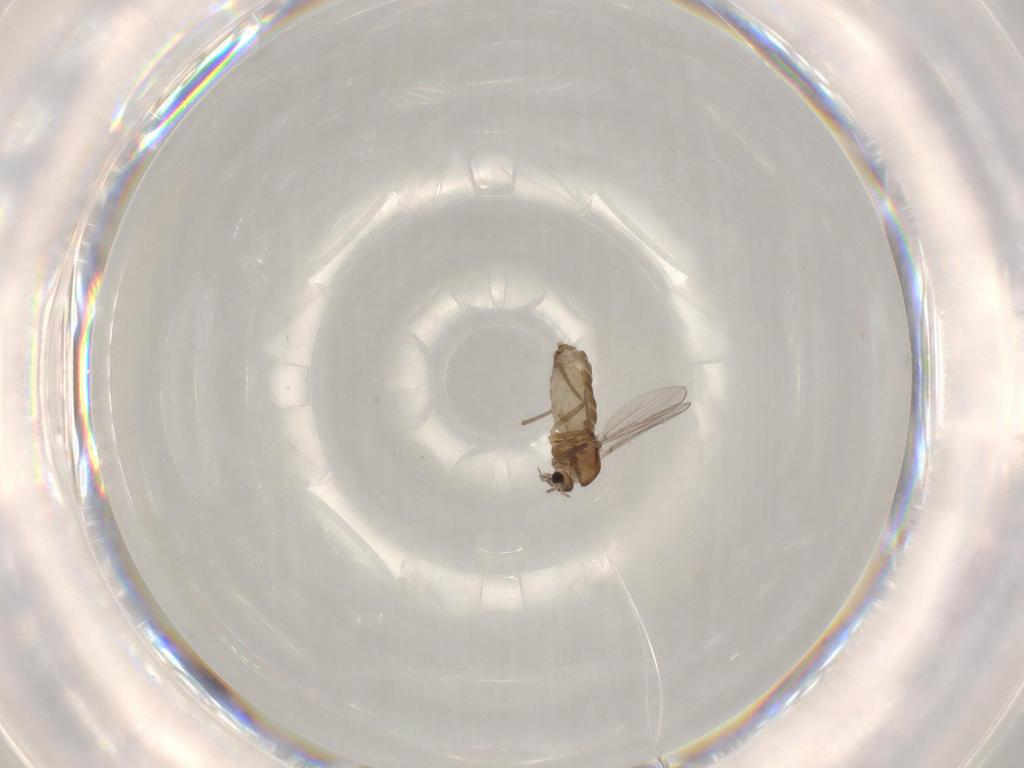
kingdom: Animalia
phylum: Arthropoda
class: Insecta
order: Diptera
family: Chironomidae
